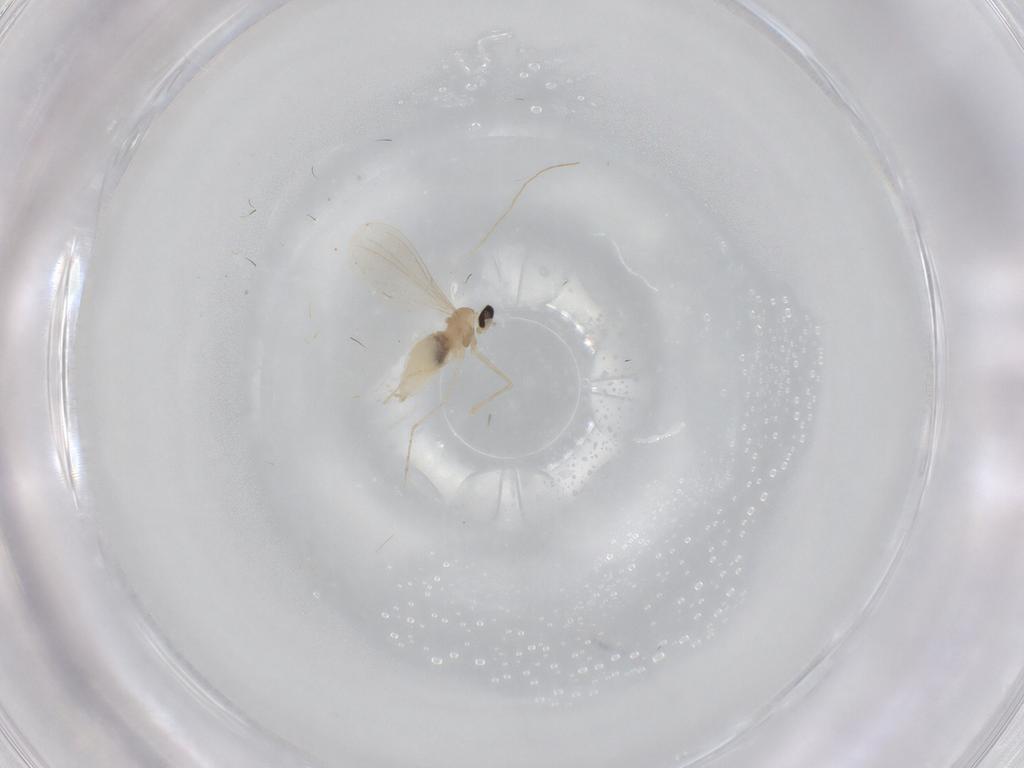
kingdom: Animalia
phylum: Arthropoda
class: Insecta
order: Diptera
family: Cecidomyiidae
